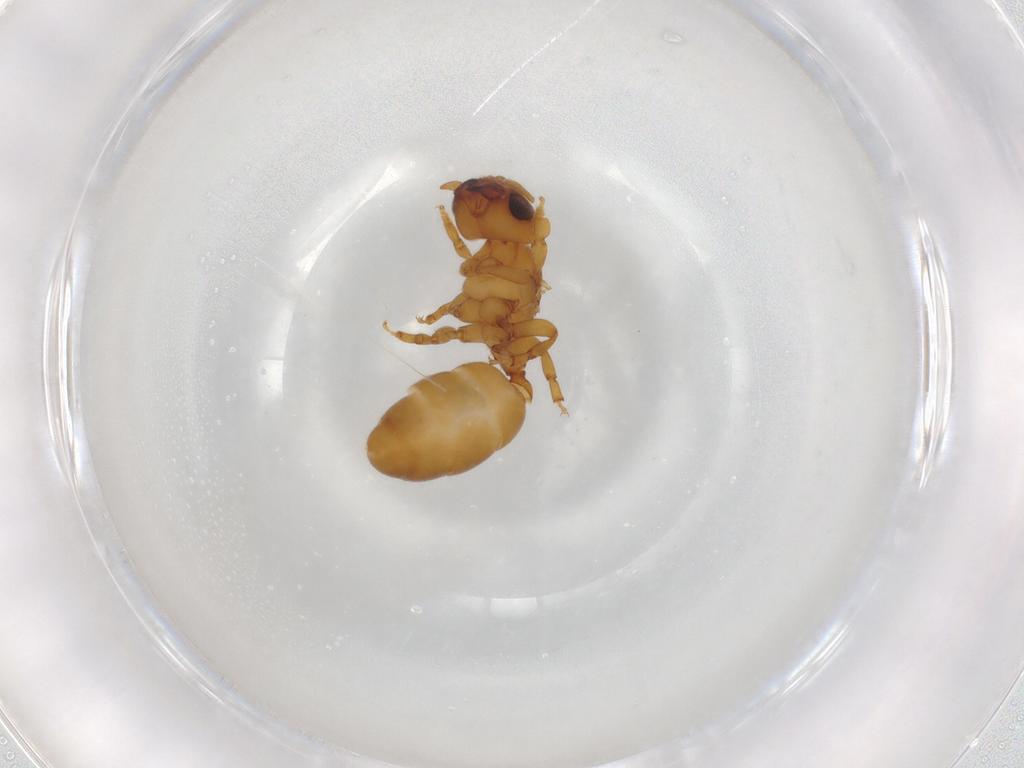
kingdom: Animalia
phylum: Arthropoda
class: Insecta
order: Hymenoptera
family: Formicidae
